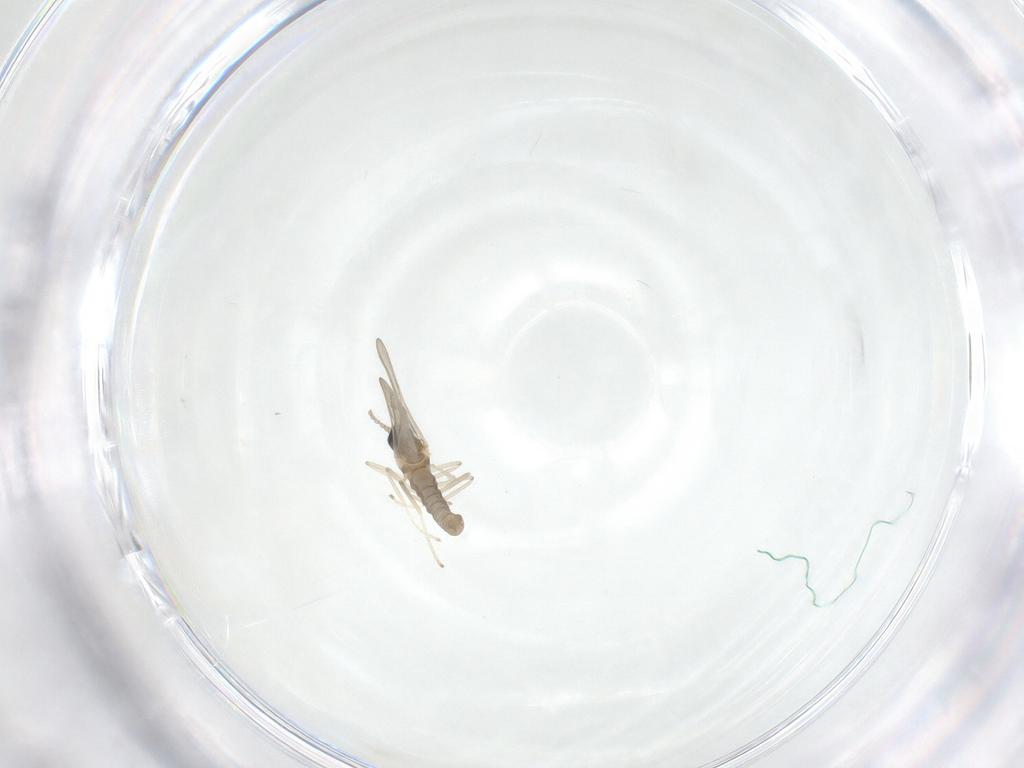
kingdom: Animalia
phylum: Arthropoda
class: Insecta
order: Diptera
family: Cecidomyiidae
